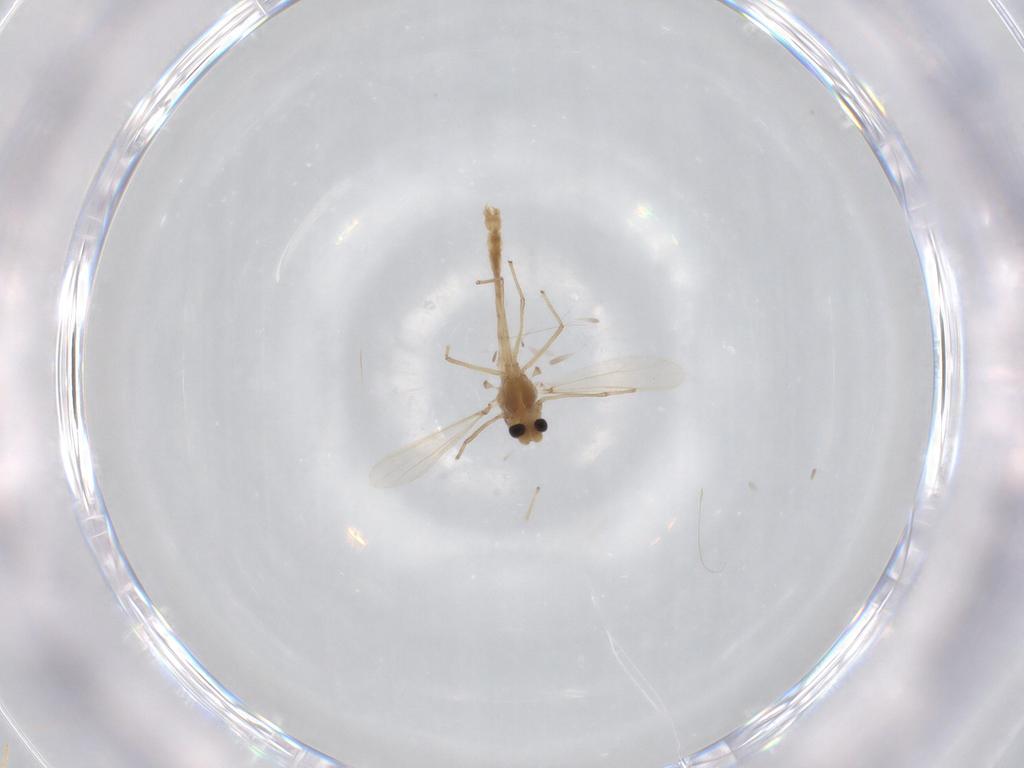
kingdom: Animalia
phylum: Arthropoda
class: Insecta
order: Diptera
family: Chironomidae
